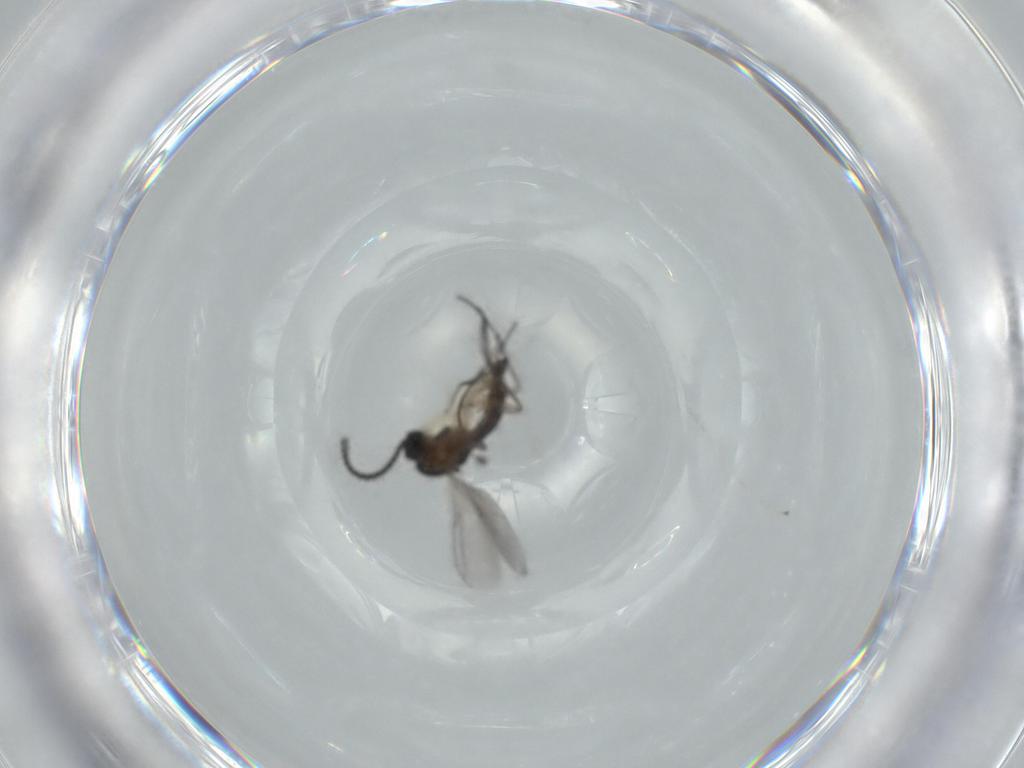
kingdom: Animalia
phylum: Arthropoda
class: Insecta
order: Diptera
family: Sciaridae
